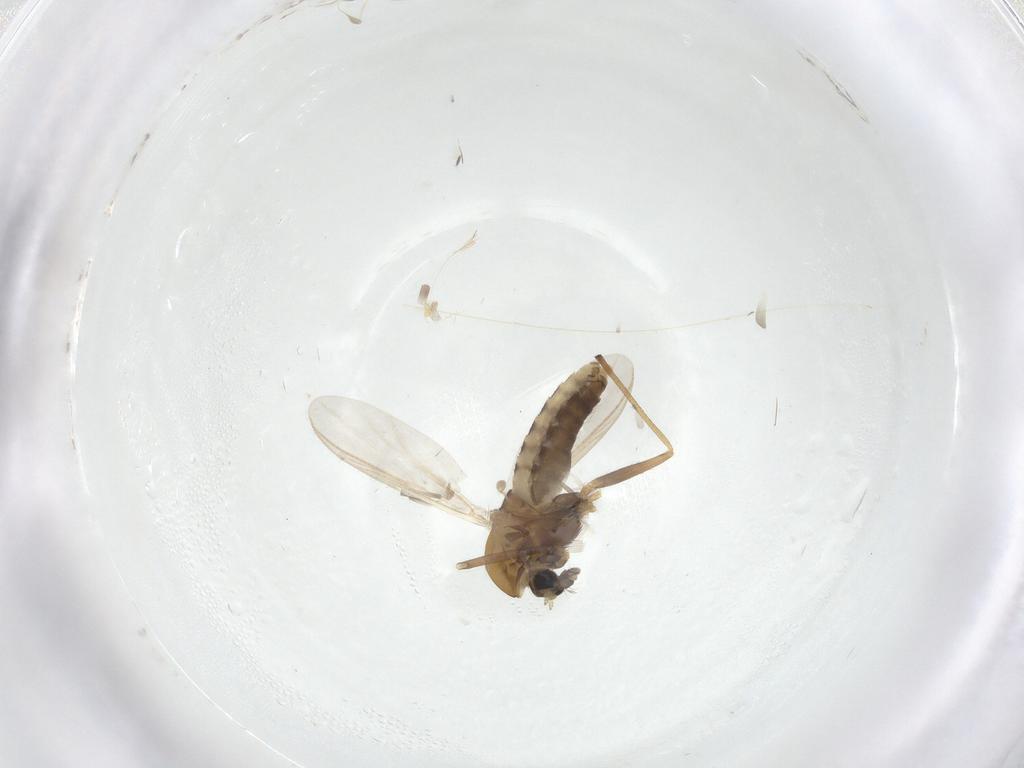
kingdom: Animalia
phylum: Arthropoda
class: Insecta
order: Diptera
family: Chironomidae
